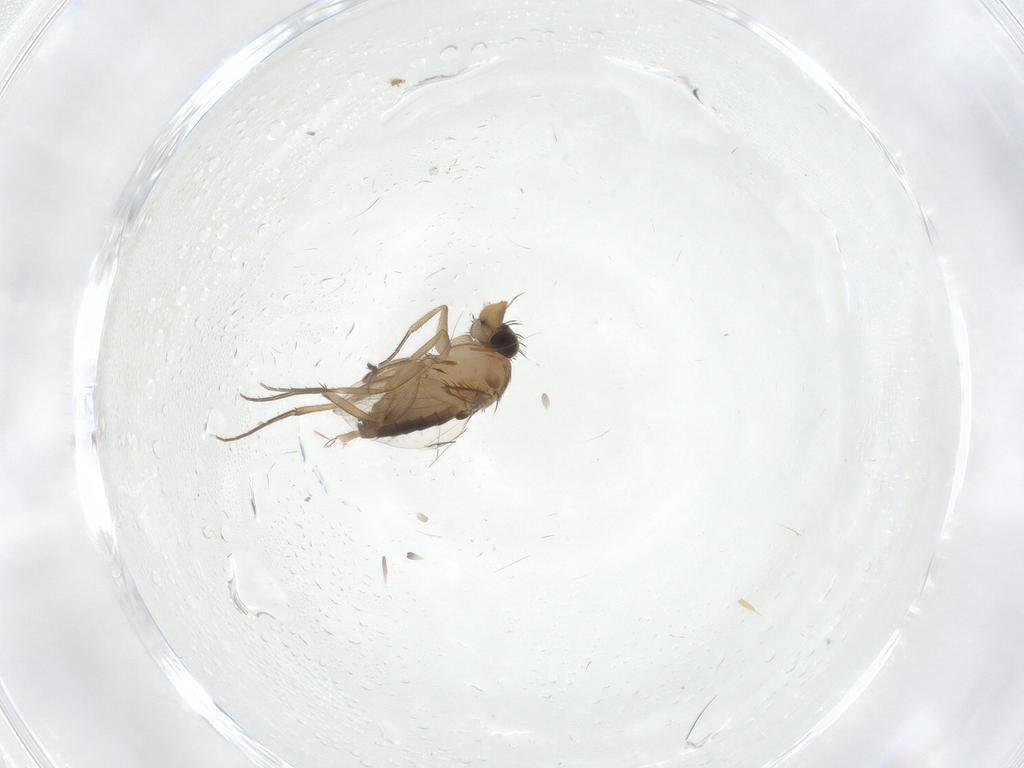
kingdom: Animalia
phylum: Arthropoda
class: Insecta
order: Diptera
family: Phoridae
